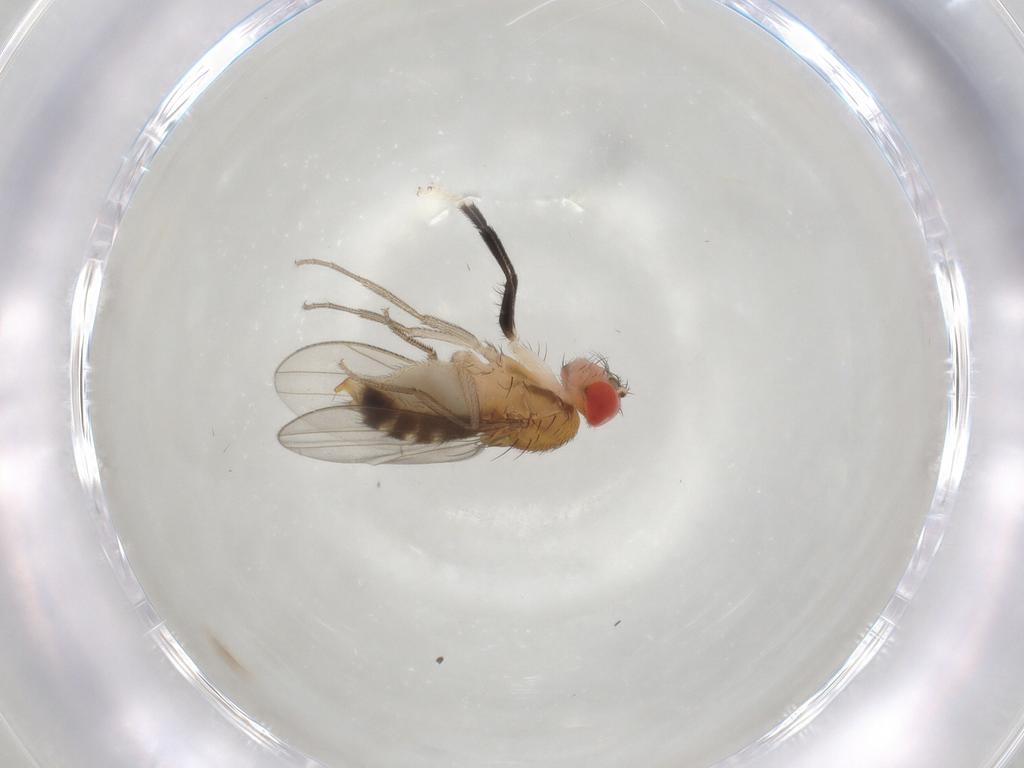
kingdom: Animalia
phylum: Arthropoda
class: Insecta
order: Diptera
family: Drosophilidae
